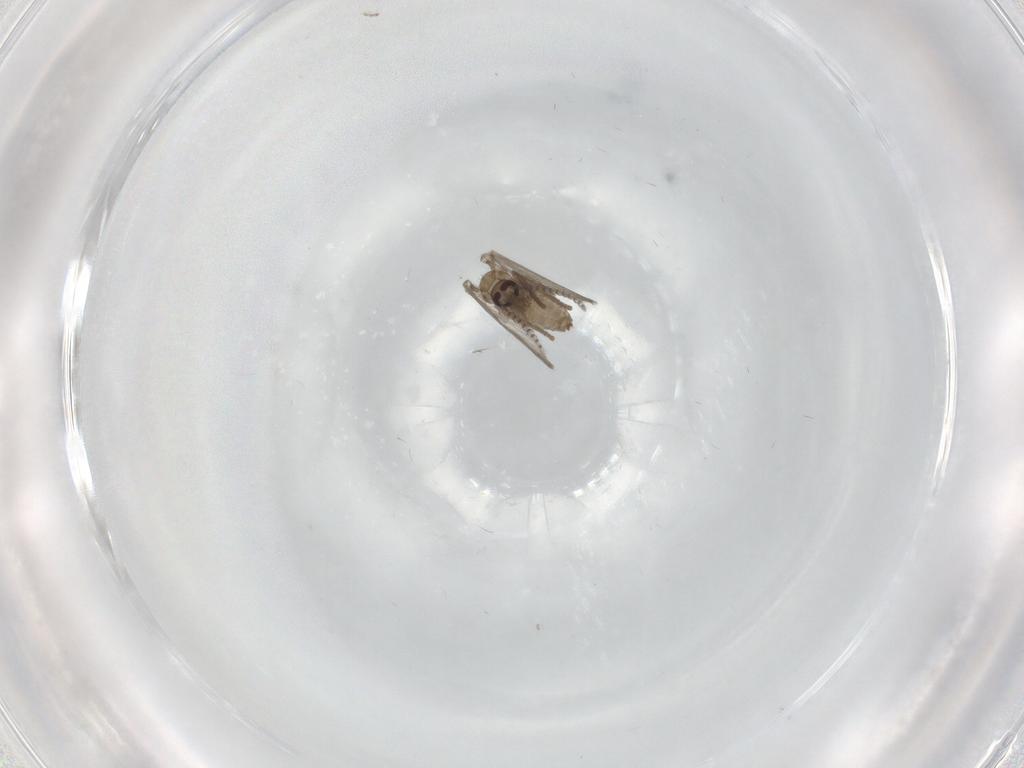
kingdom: Animalia
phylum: Arthropoda
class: Insecta
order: Diptera
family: Psychodidae
